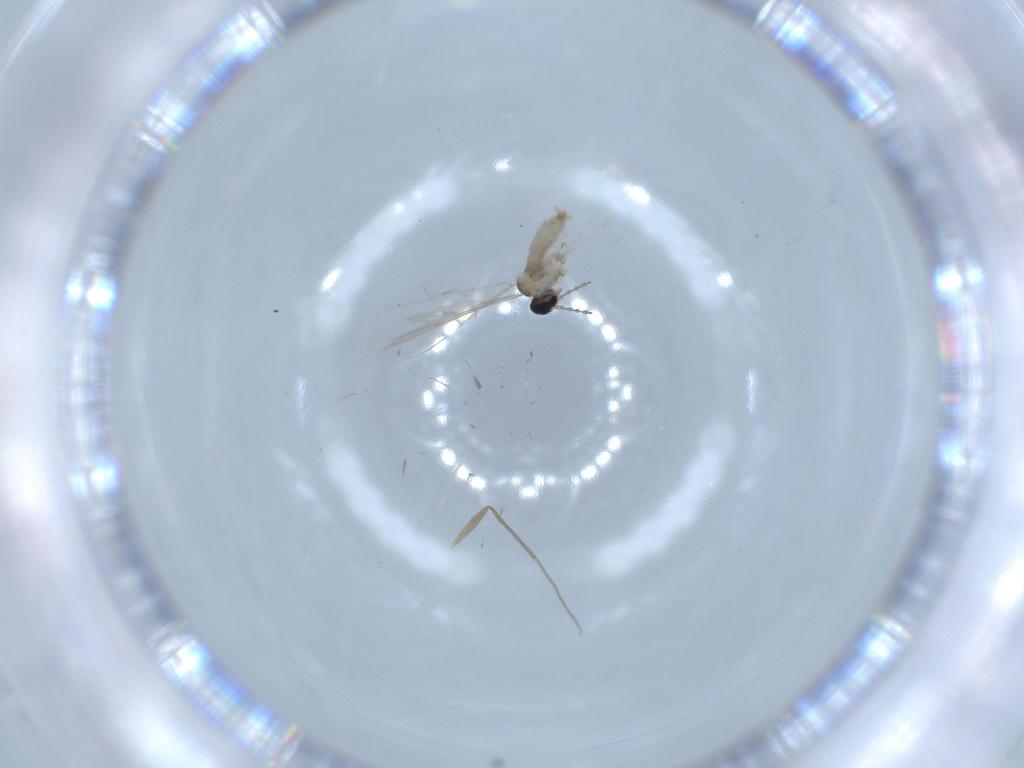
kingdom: Animalia
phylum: Arthropoda
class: Insecta
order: Diptera
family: Cecidomyiidae
